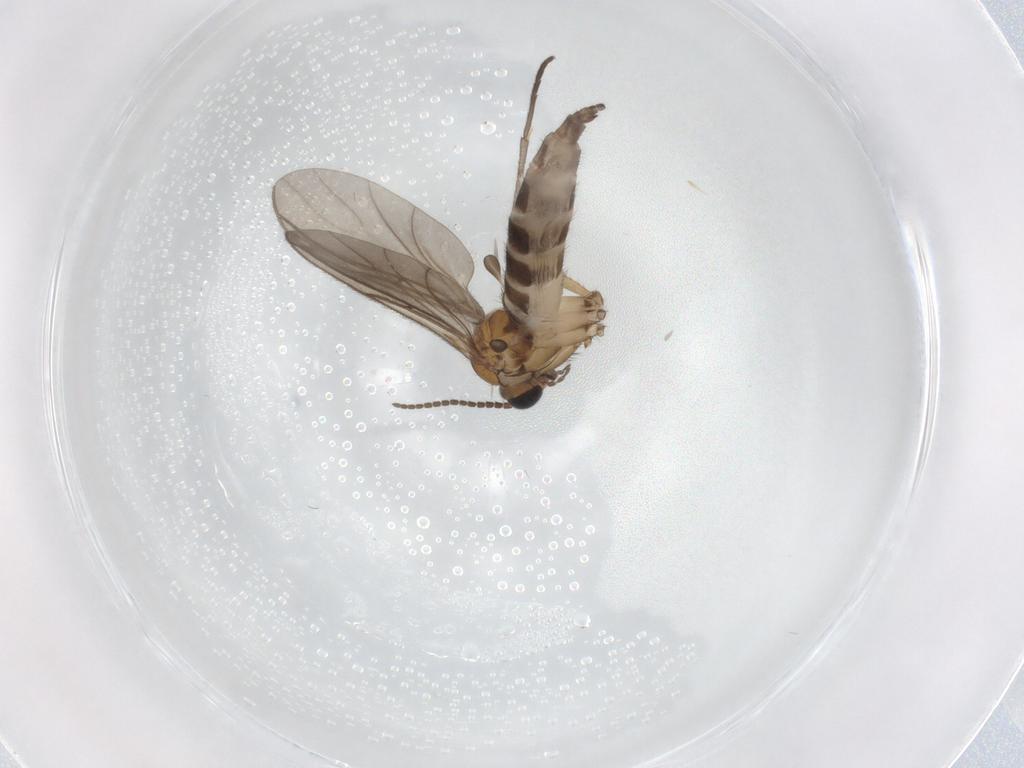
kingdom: Animalia
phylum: Arthropoda
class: Insecta
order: Diptera
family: Sciaridae
